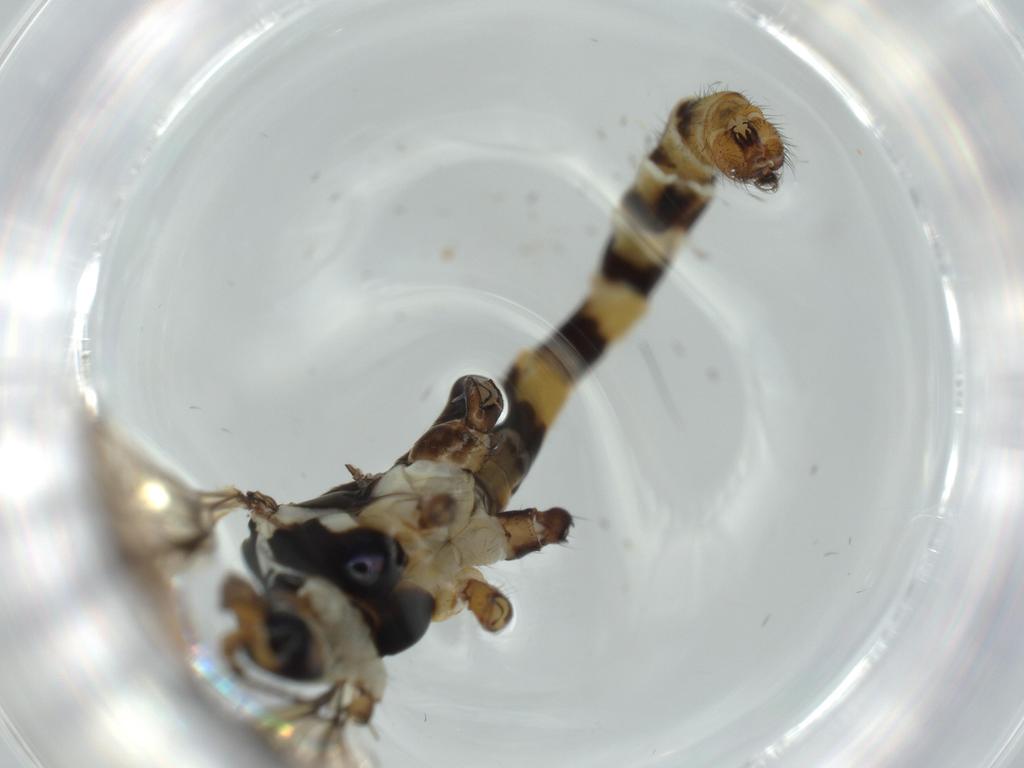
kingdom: Animalia
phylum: Arthropoda
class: Insecta
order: Diptera
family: Limoniidae
